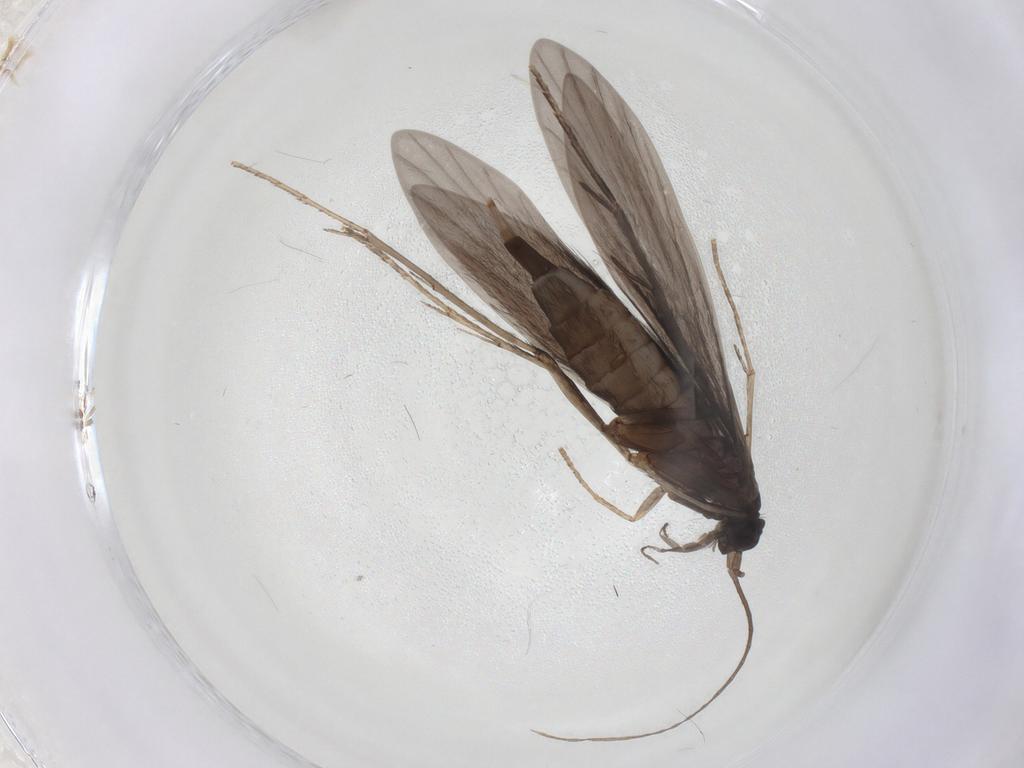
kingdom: Animalia
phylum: Arthropoda
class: Insecta
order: Trichoptera
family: Xiphocentronidae
